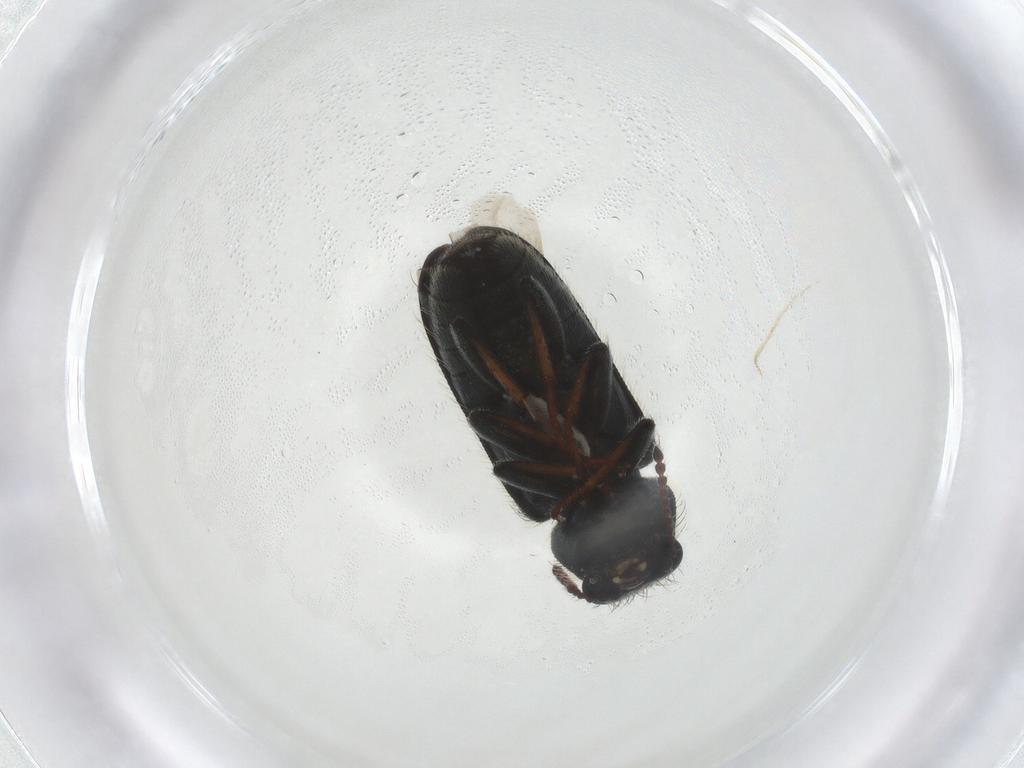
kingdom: Animalia
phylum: Arthropoda
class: Insecta
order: Coleoptera
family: Melyridae
